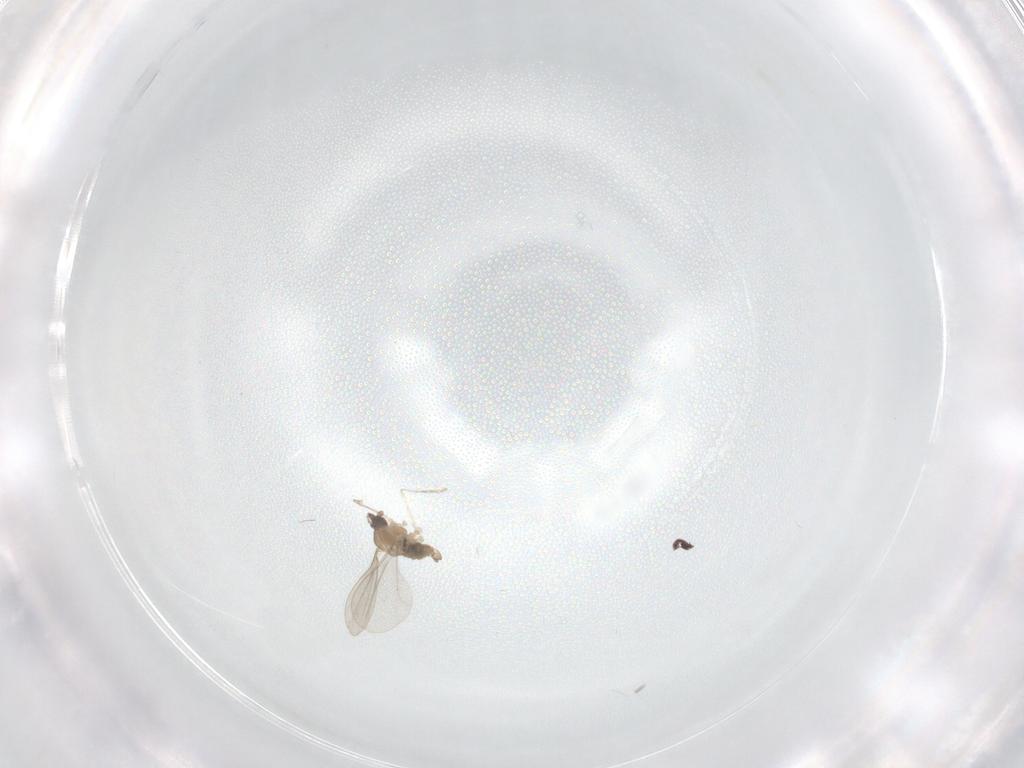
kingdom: Animalia
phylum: Arthropoda
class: Insecta
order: Diptera
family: Cecidomyiidae
